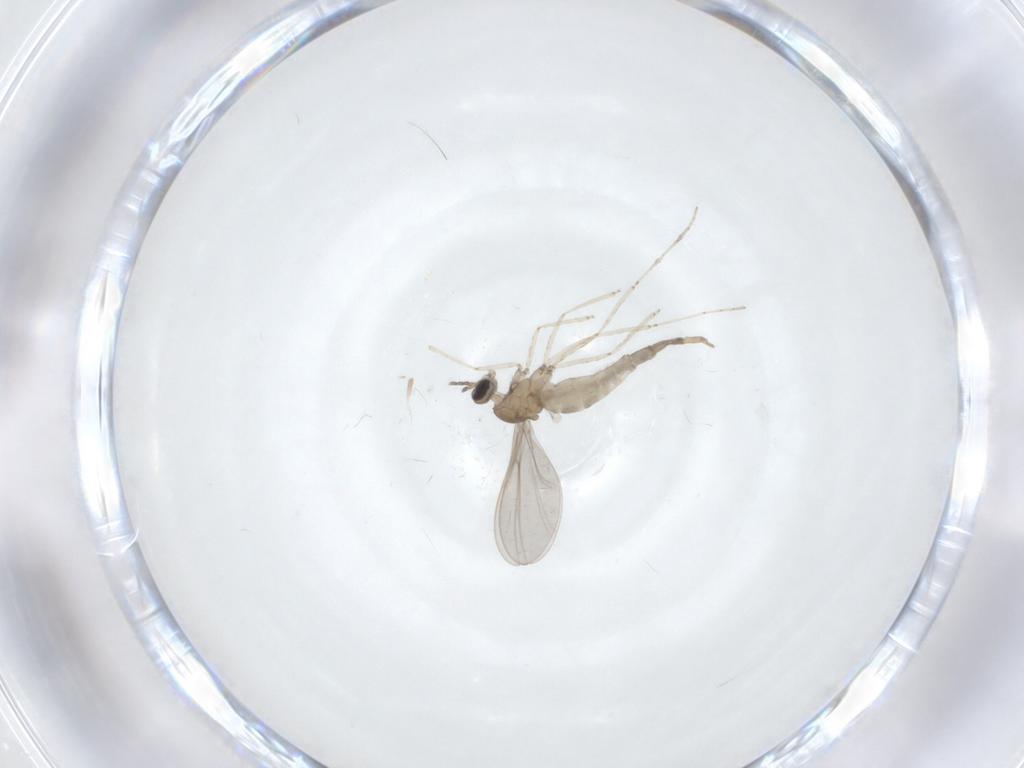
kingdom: Animalia
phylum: Arthropoda
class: Insecta
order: Diptera
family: Cecidomyiidae
